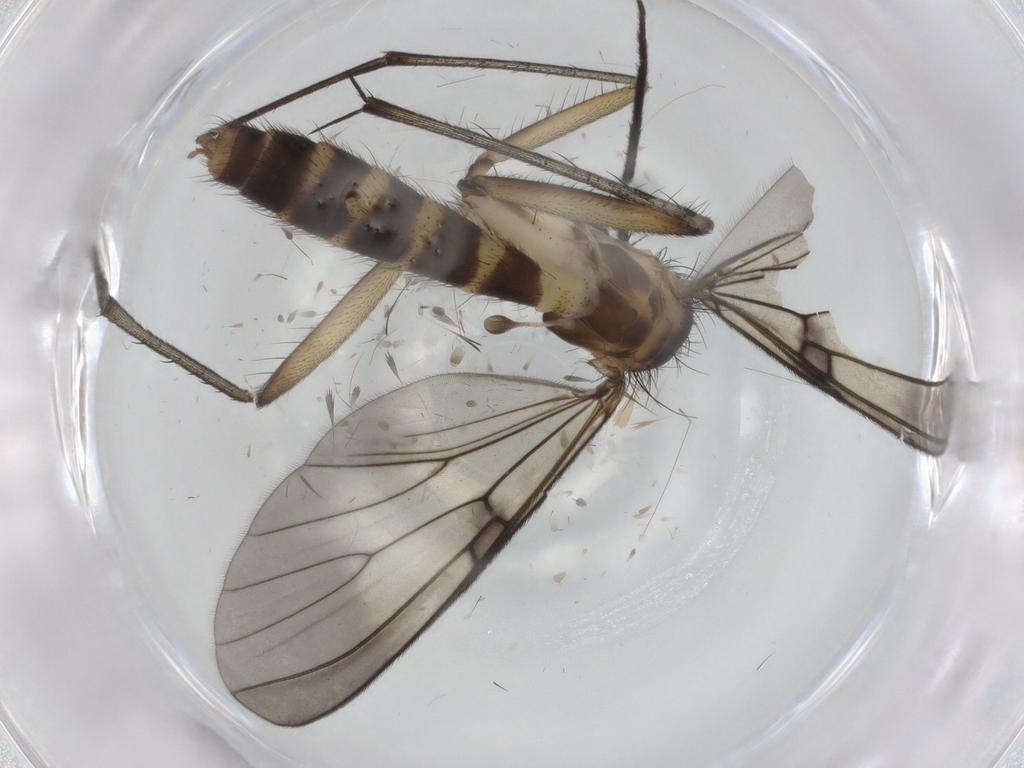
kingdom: Animalia
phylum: Arthropoda
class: Insecta
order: Diptera
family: Mycetophilidae
